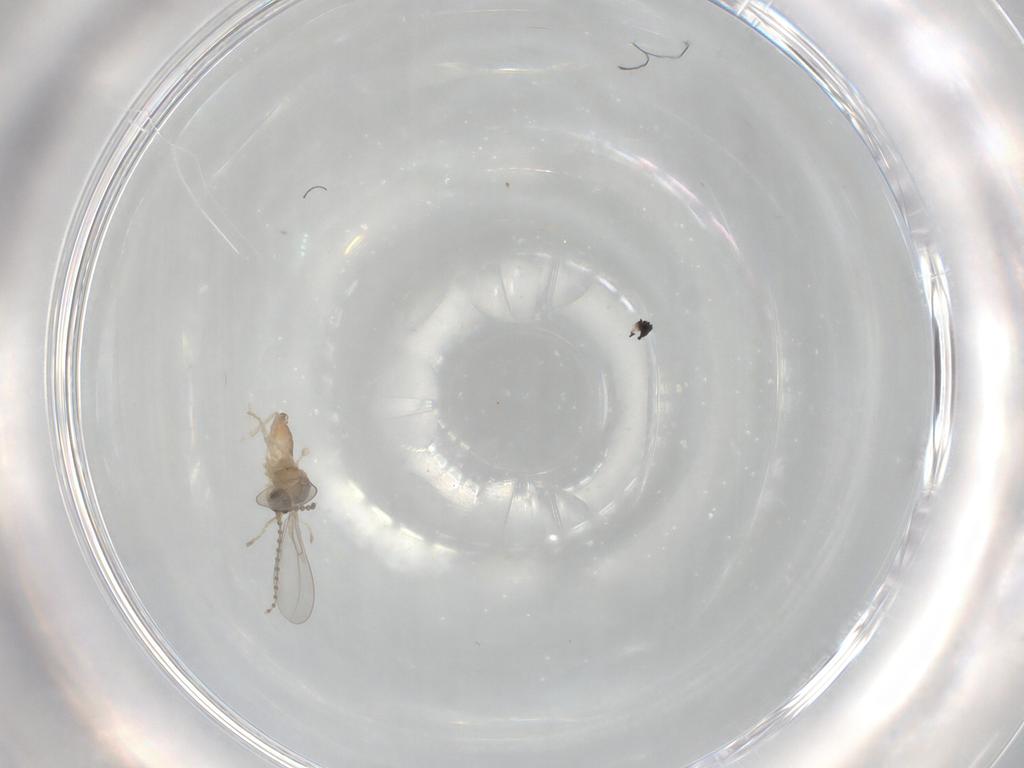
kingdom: Animalia
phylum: Arthropoda
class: Insecta
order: Diptera
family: Cecidomyiidae
